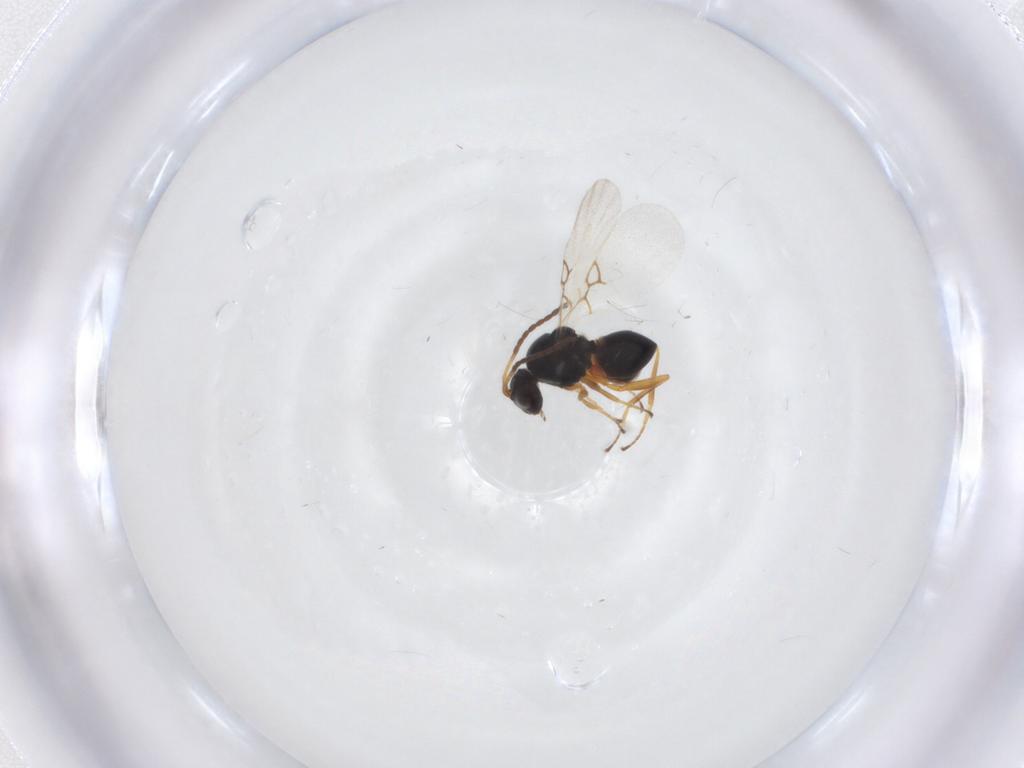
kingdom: Animalia
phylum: Arthropoda
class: Insecta
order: Hymenoptera
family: Figitidae
